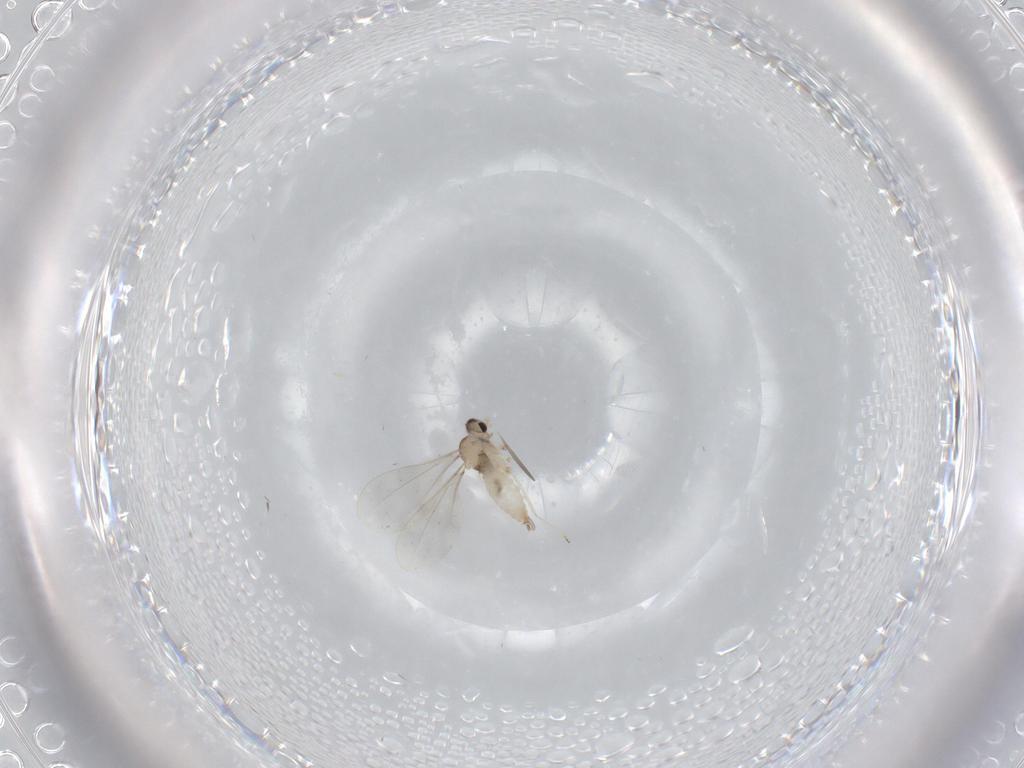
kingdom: Animalia
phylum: Arthropoda
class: Insecta
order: Diptera
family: Cecidomyiidae
